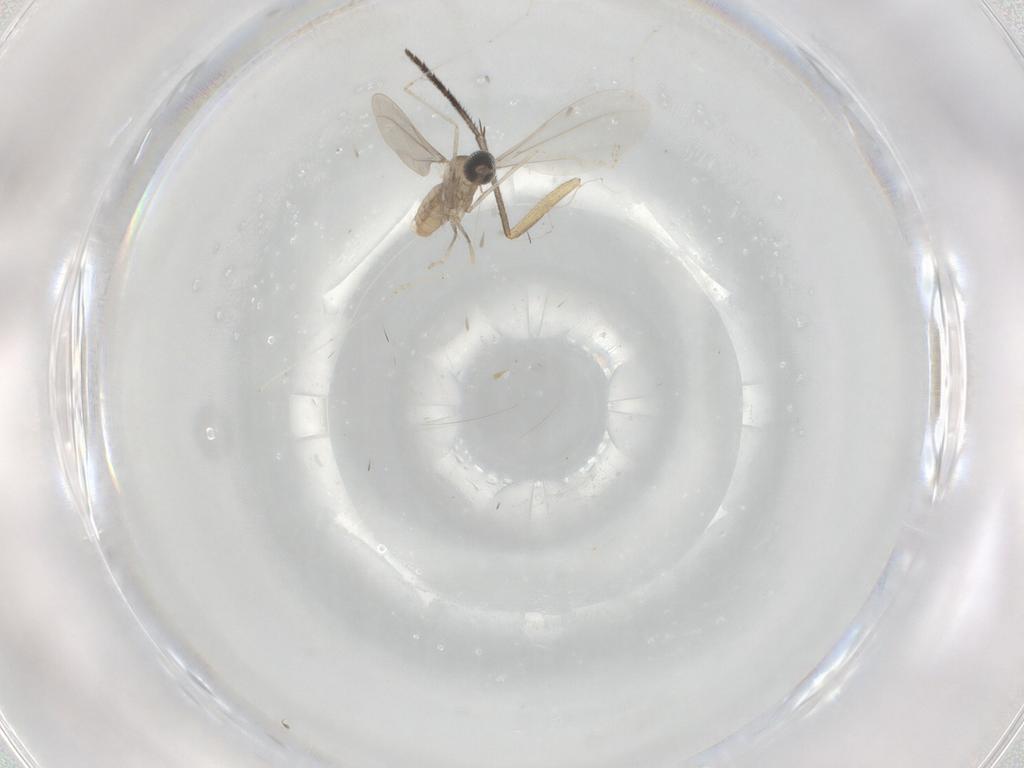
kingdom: Animalia
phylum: Arthropoda
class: Insecta
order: Diptera
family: Cecidomyiidae
